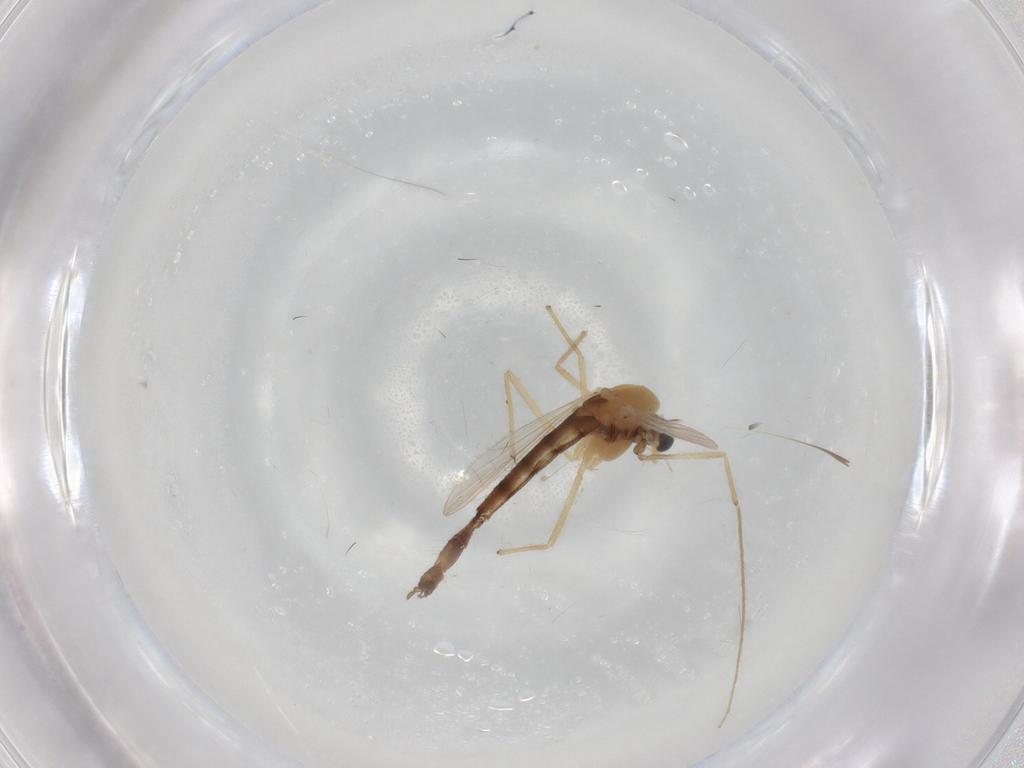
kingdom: Animalia
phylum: Arthropoda
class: Insecta
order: Diptera
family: Chironomidae
